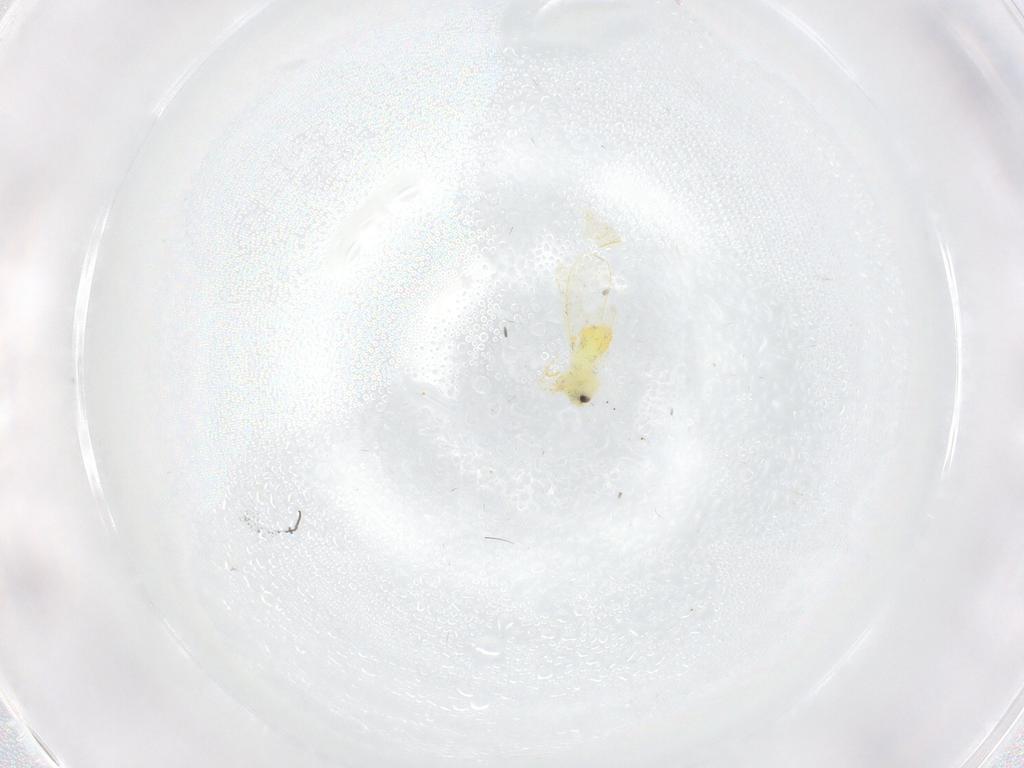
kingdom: Animalia
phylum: Arthropoda
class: Insecta
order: Hemiptera
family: Aleyrodidae
